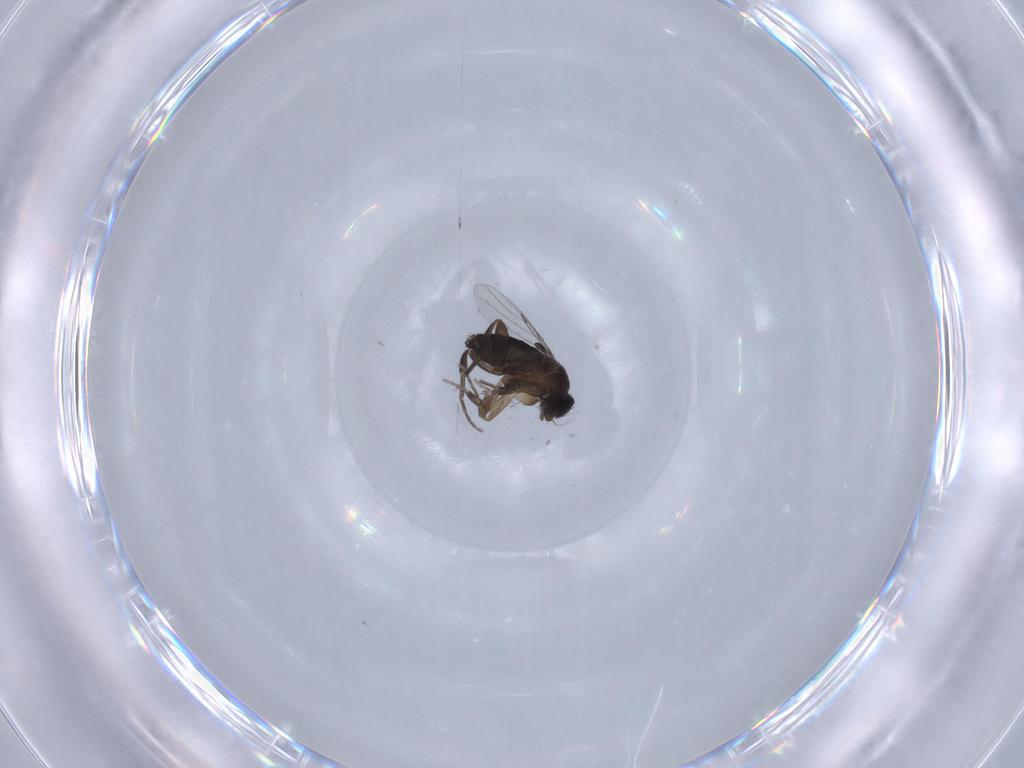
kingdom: Animalia
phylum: Arthropoda
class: Insecta
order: Diptera
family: Phoridae
